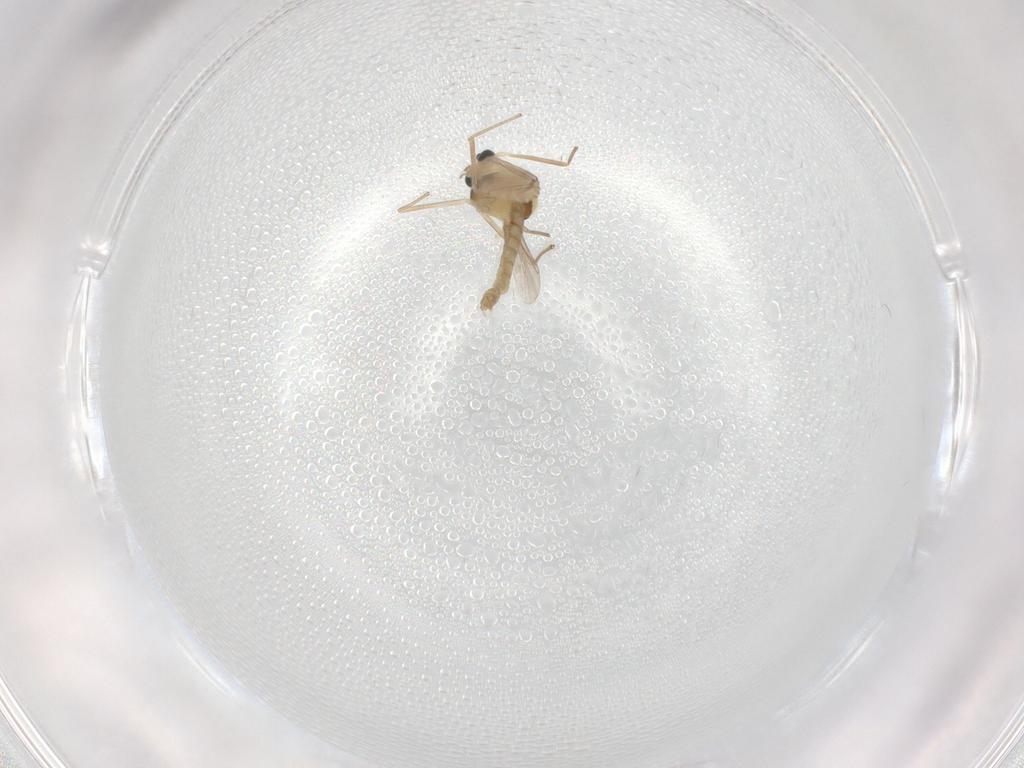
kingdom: Animalia
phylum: Arthropoda
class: Insecta
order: Diptera
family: Chironomidae
